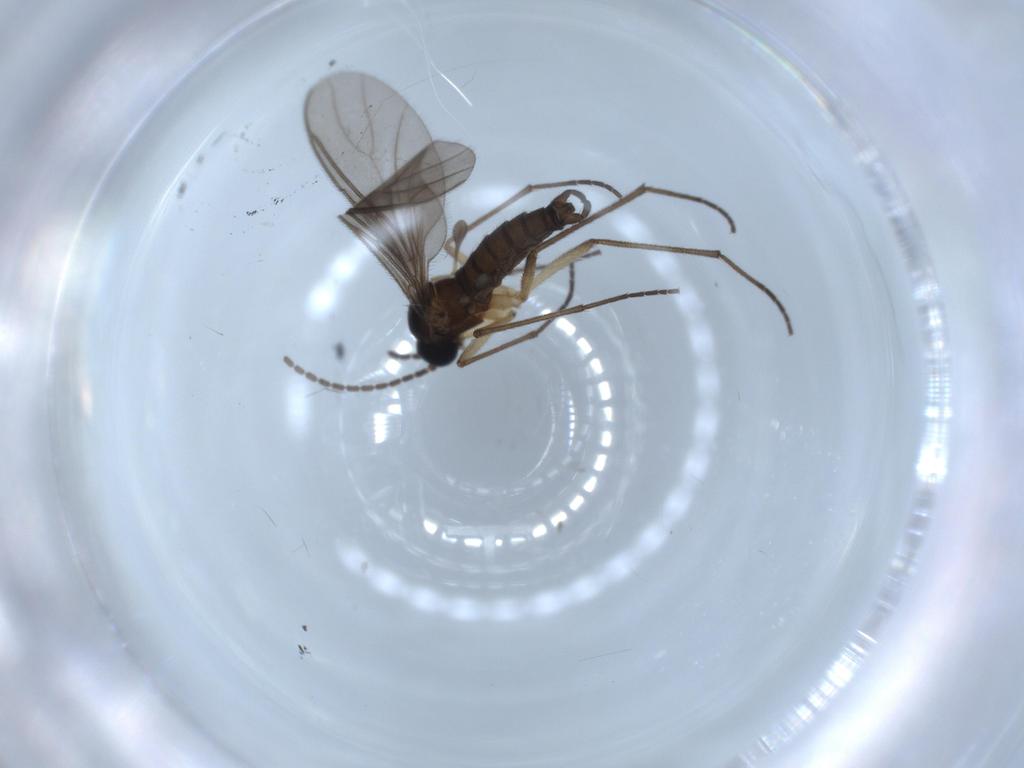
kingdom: Animalia
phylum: Arthropoda
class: Insecta
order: Diptera
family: Sciaridae
